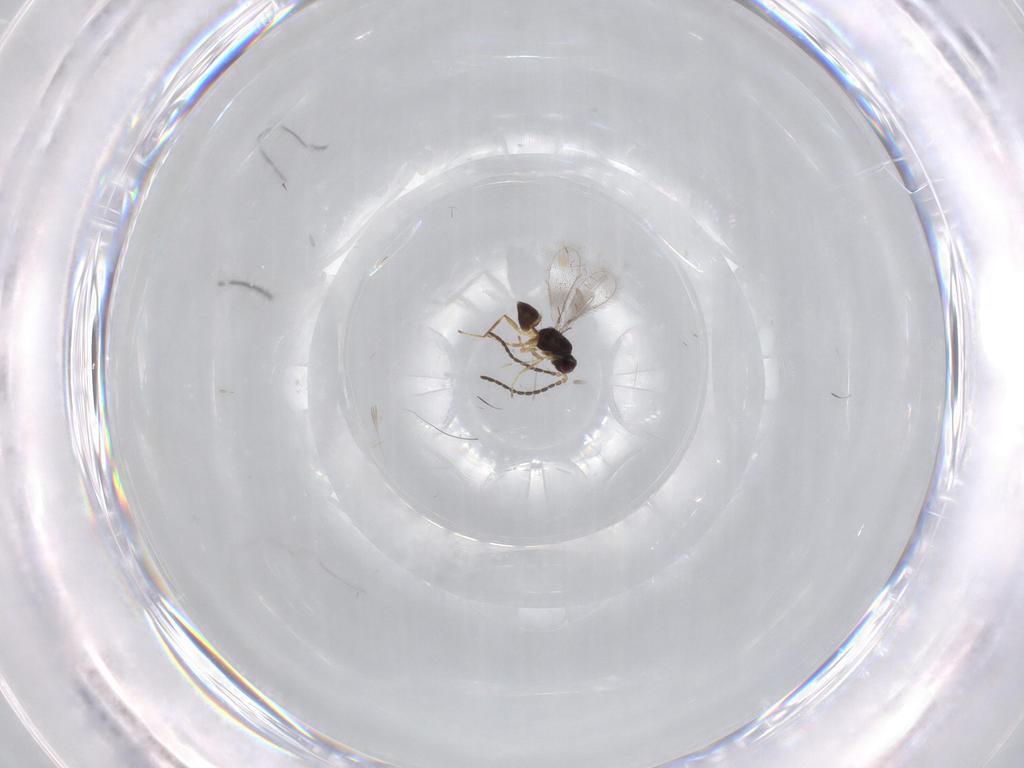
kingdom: Animalia
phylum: Arthropoda
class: Insecta
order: Hymenoptera
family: Mymaridae
